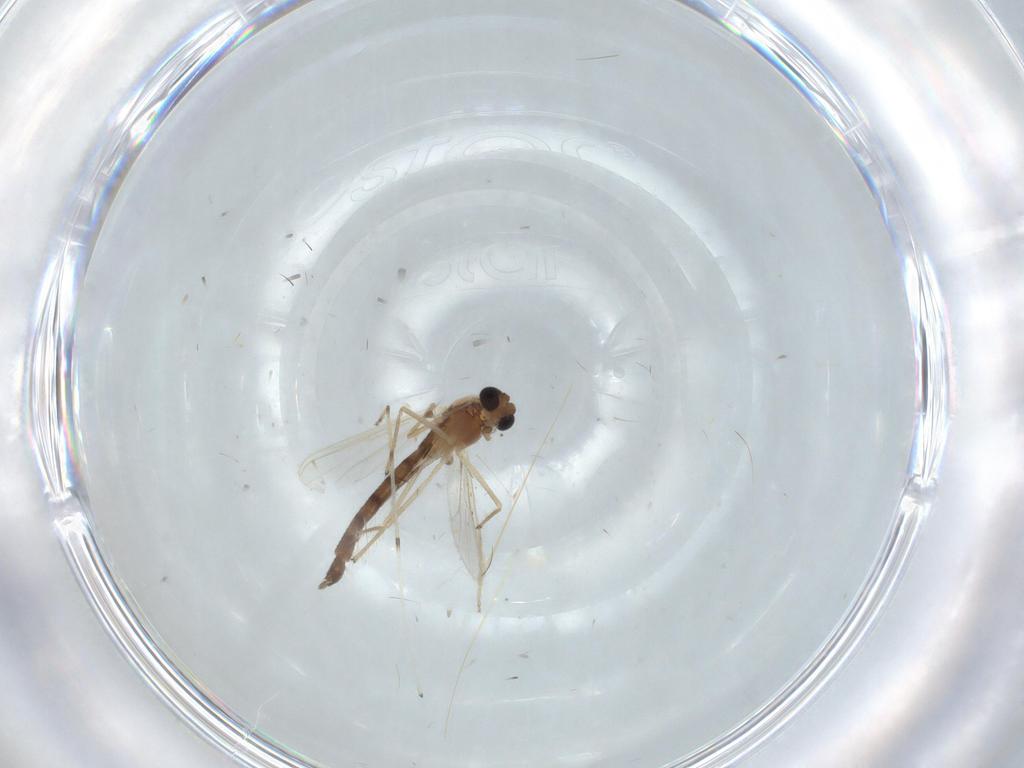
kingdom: Animalia
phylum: Arthropoda
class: Insecta
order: Diptera
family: Chironomidae
